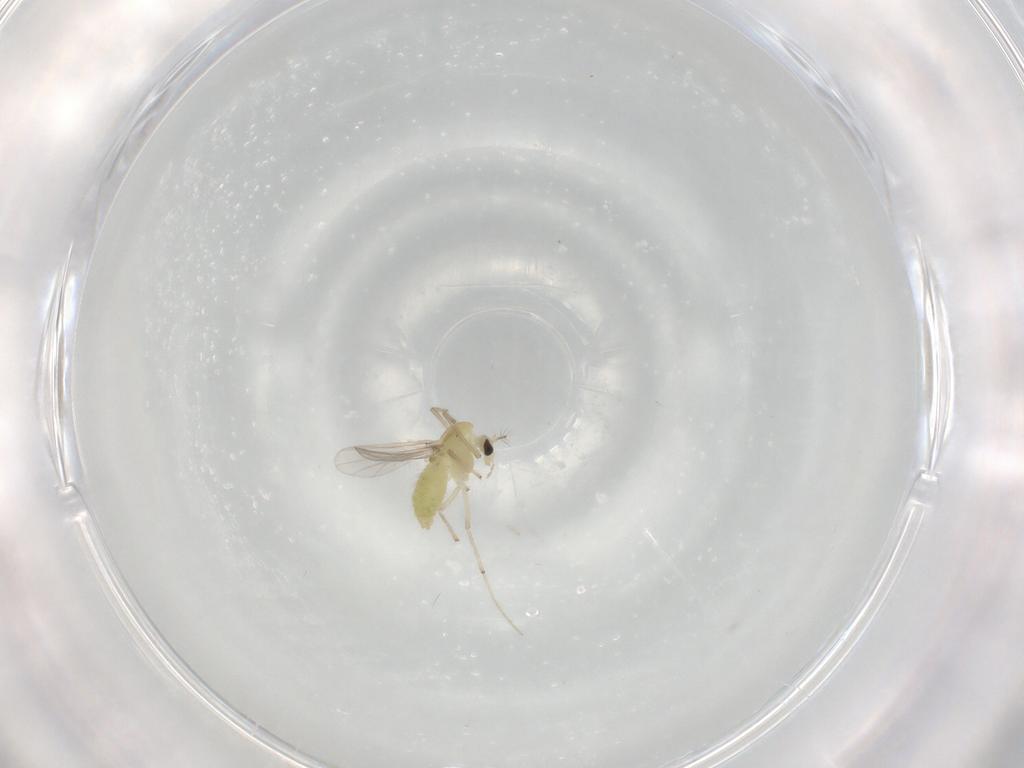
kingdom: Animalia
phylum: Arthropoda
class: Insecta
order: Diptera
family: Chironomidae
